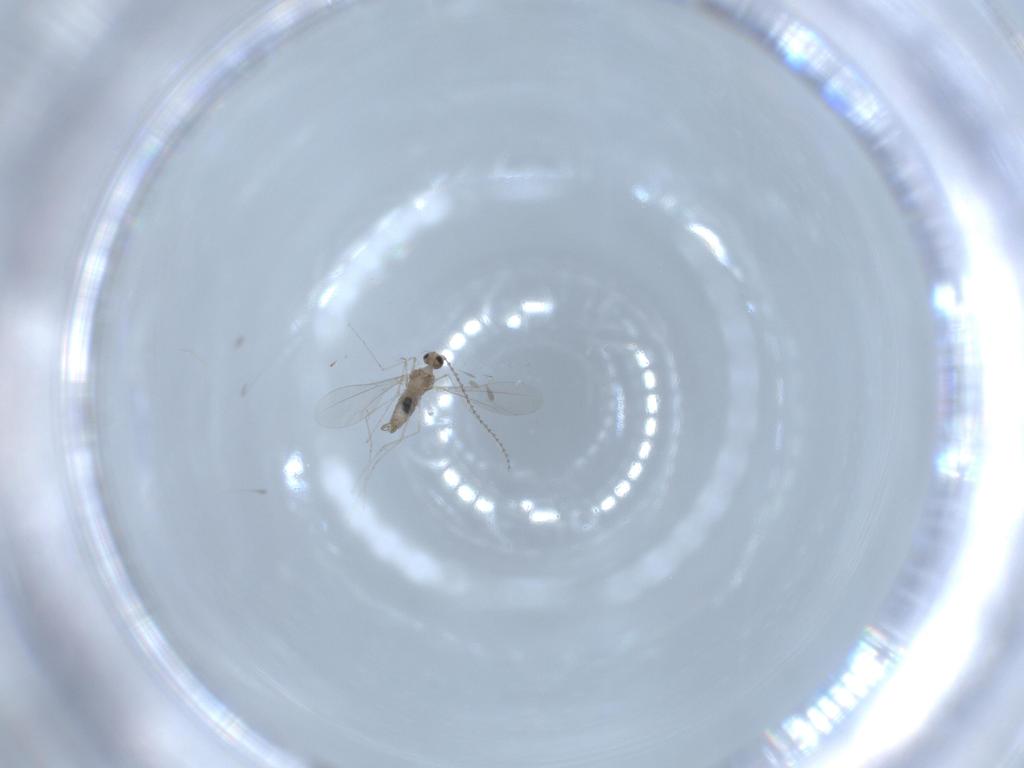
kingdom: Animalia
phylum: Arthropoda
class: Insecta
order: Diptera
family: Cecidomyiidae
